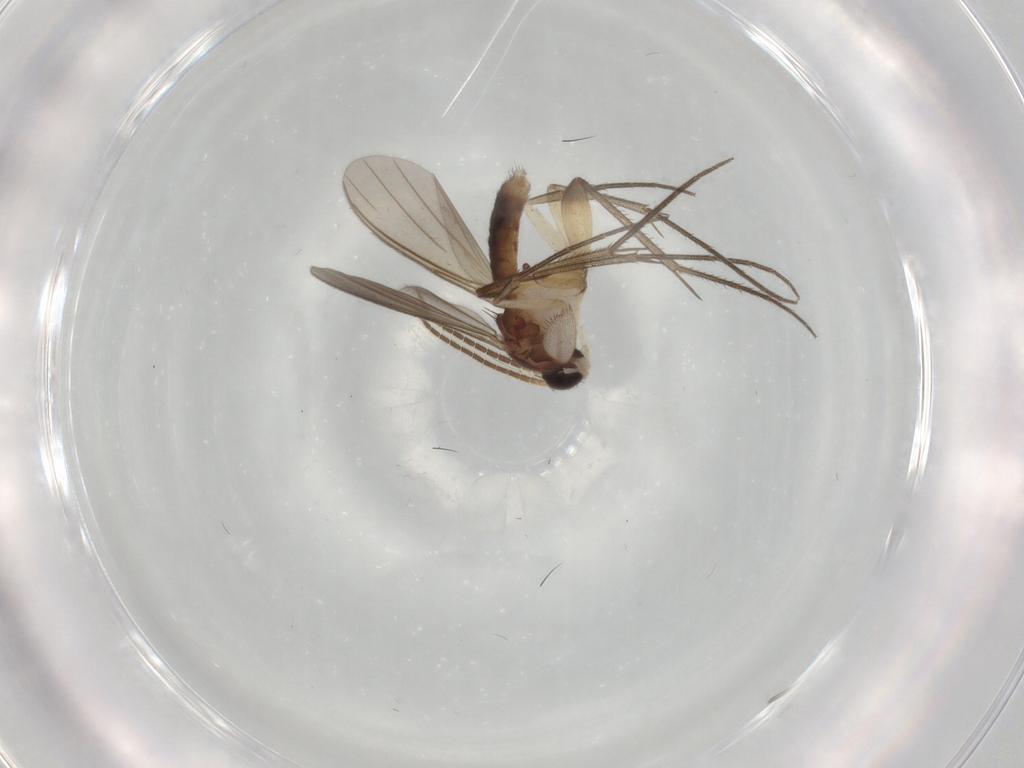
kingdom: Animalia
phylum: Arthropoda
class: Insecta
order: Diptera
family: Mycetophilidae
